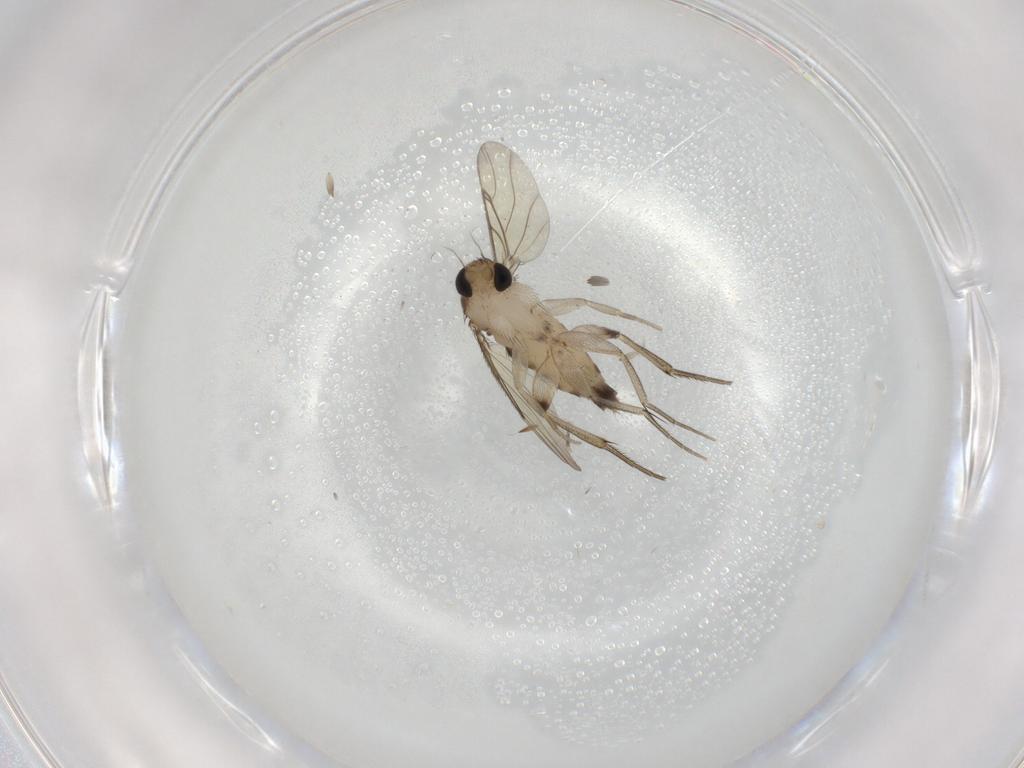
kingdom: Animalia
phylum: Arthropoda
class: Insecta
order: Diptera
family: Phoridae
